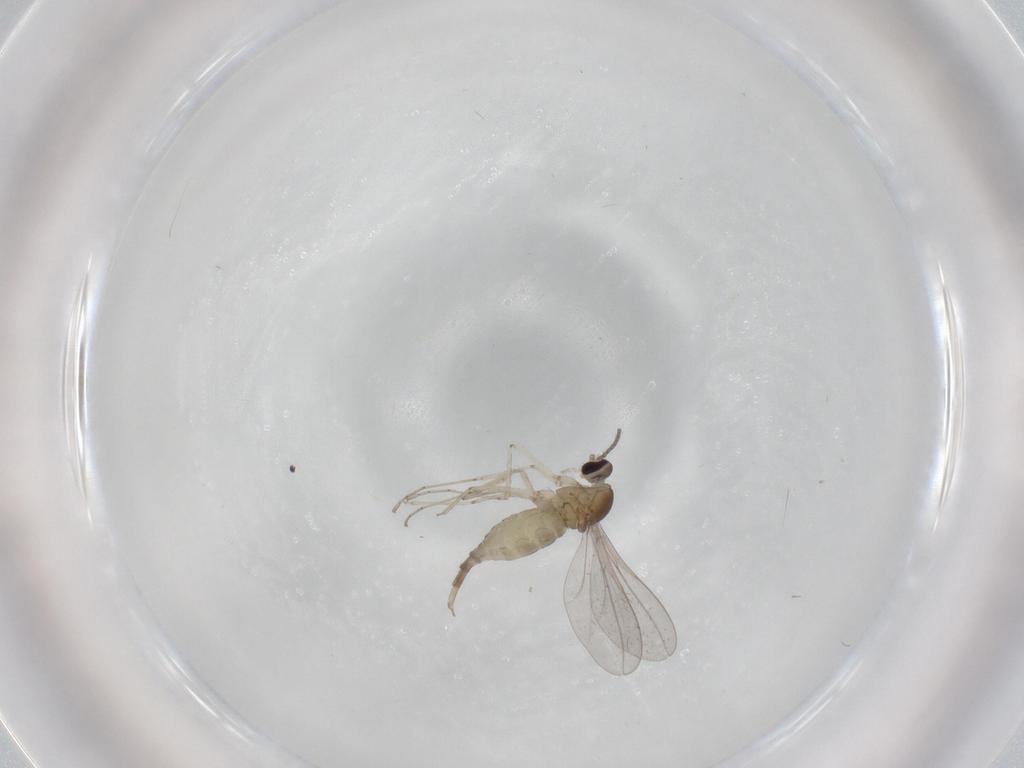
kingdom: Animalia
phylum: Arthropoda
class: Insecta
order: Diptera
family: Cecidomyiidae
